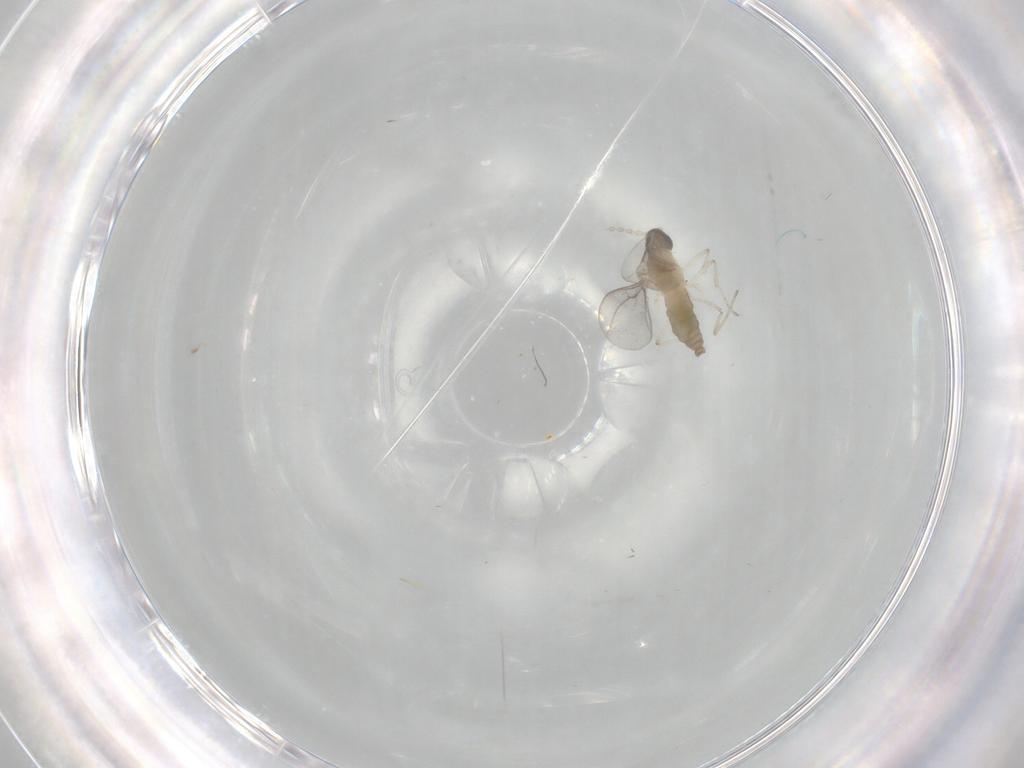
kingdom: Animalia
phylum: Arthropoda
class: Insecta
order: Diptera
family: Cecidomyiidae
